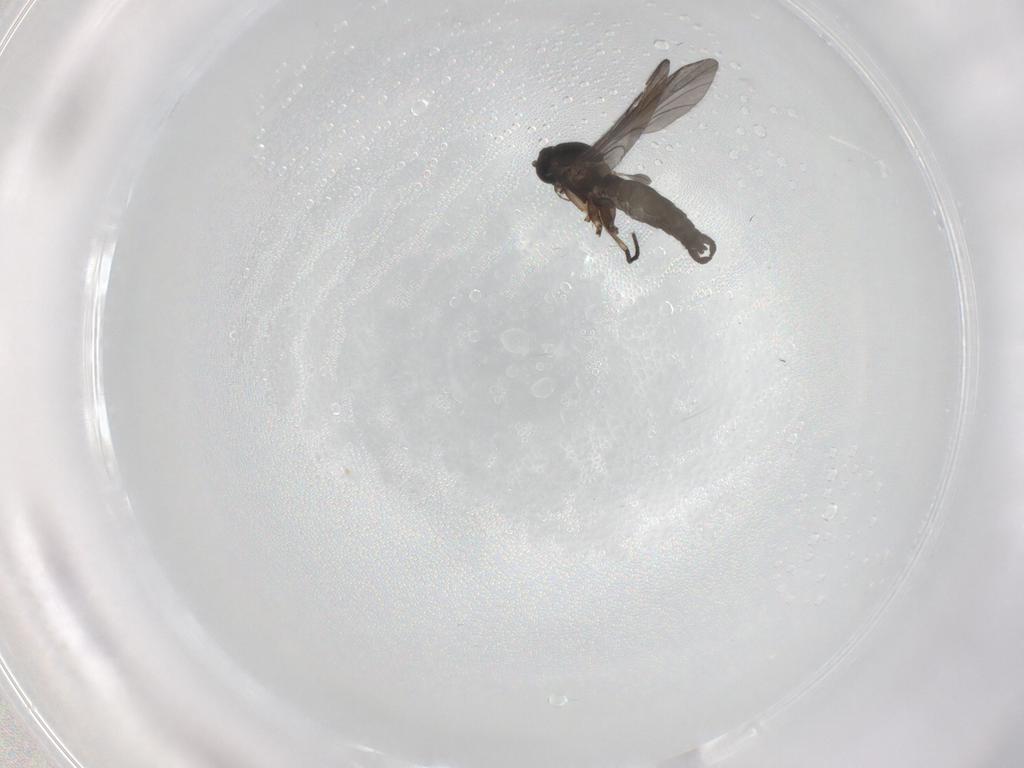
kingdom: Animalia
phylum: Arthropoda
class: Insecta
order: Diptera
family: Sciaridae
